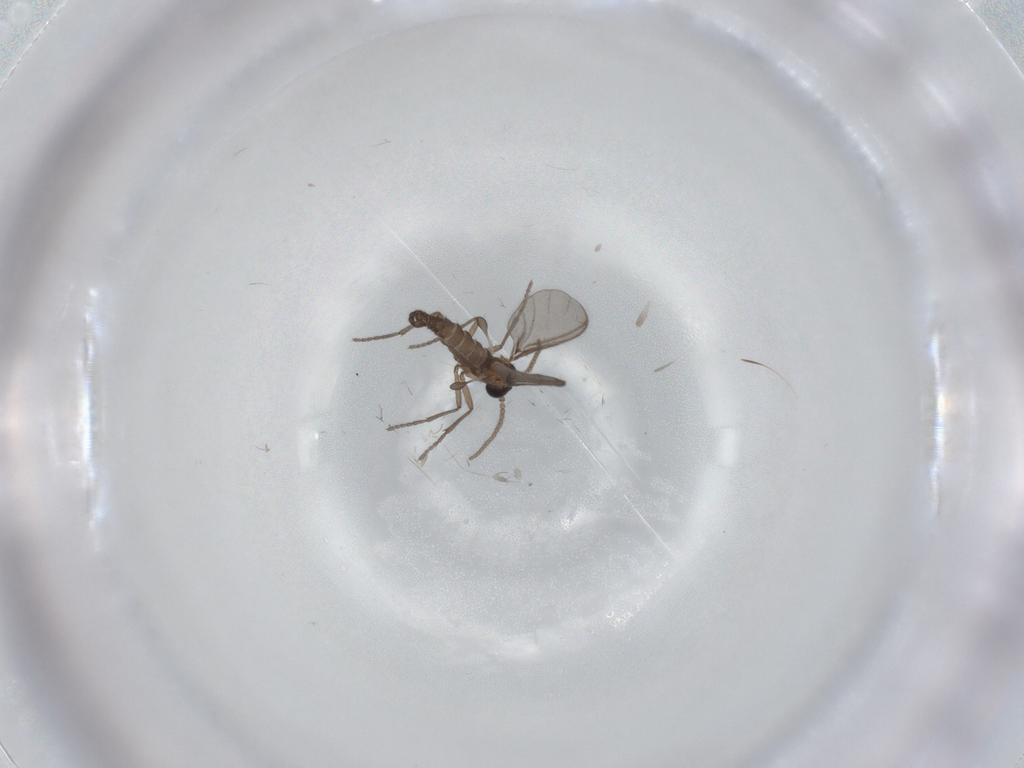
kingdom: Animalia
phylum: Arthropoda
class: Insecta
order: Diptera
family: Sciaridae
